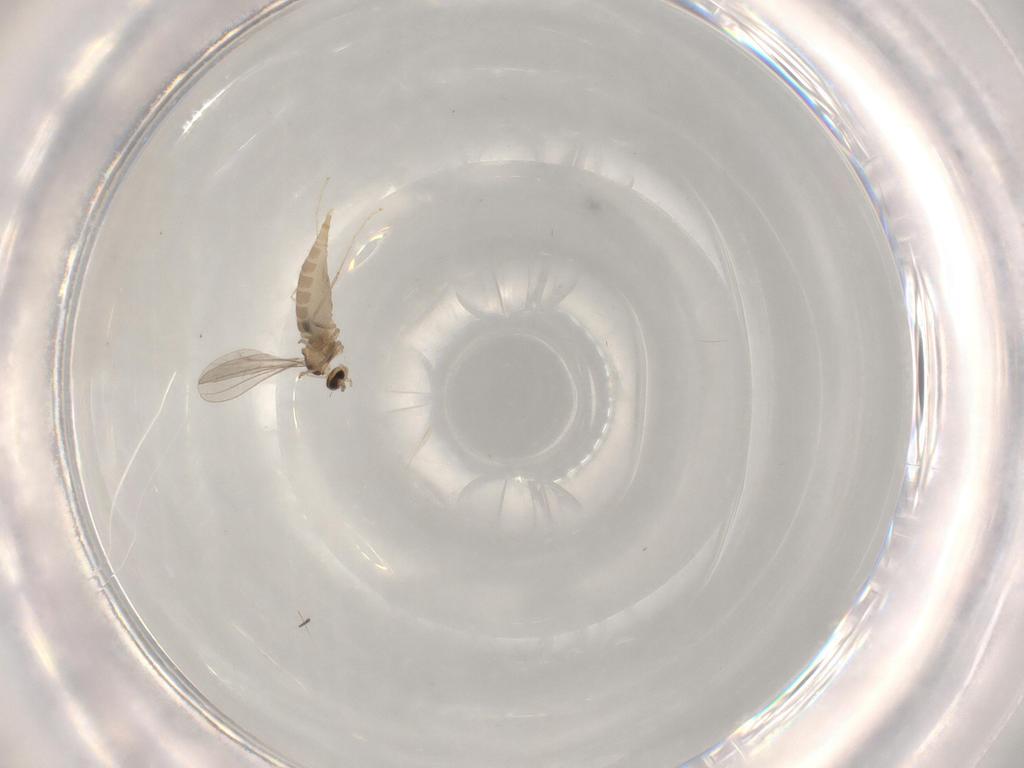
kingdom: Animalia
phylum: Arthropoda
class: Insecta
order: Diptera
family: Chironomidae
